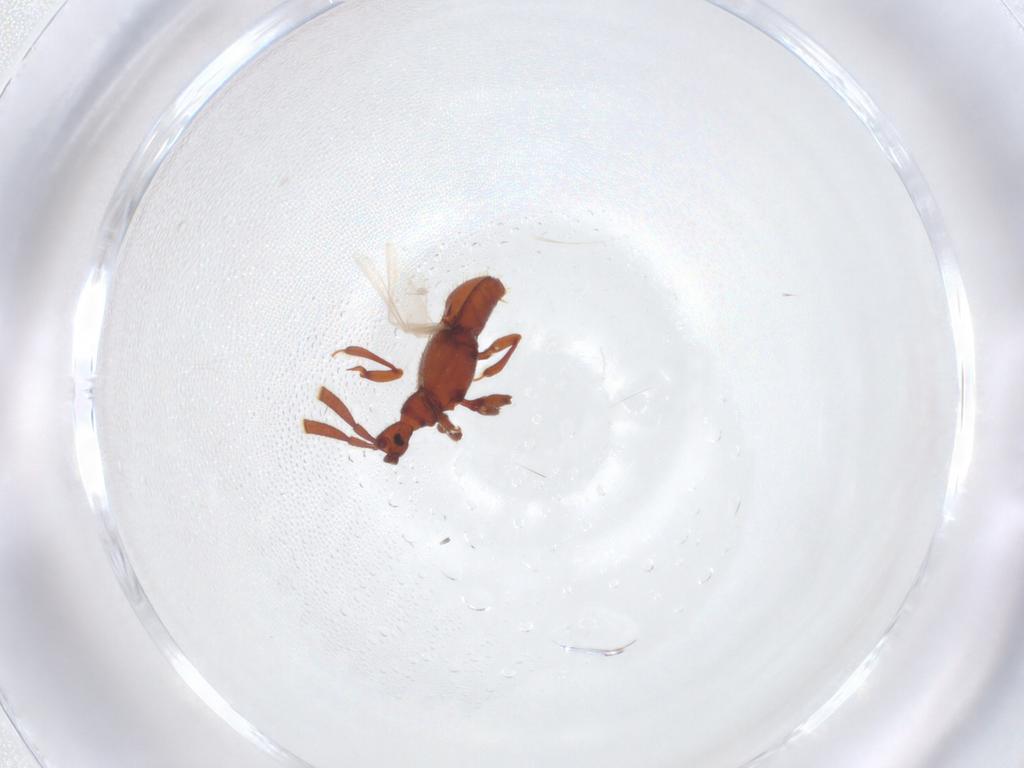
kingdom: Animalia
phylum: Arthropoda
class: Insecta
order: Coleoptera
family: Staphylinidae
